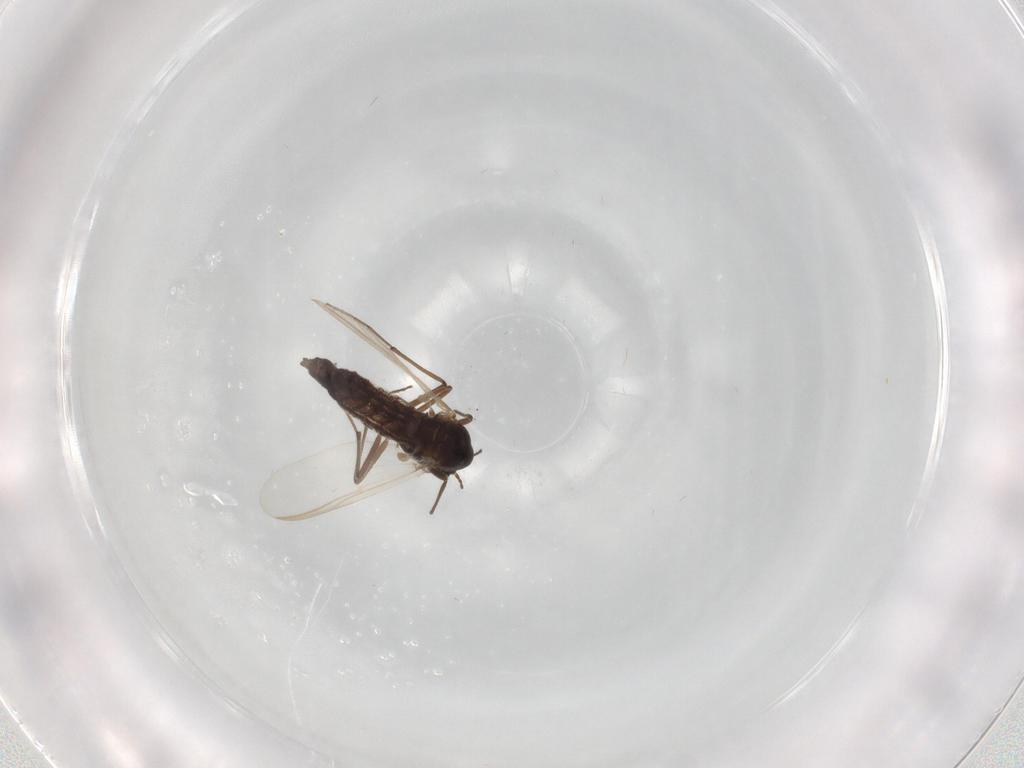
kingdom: Animalia
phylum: Arthropoda
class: Insecta
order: Diptera
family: Chironomidae
